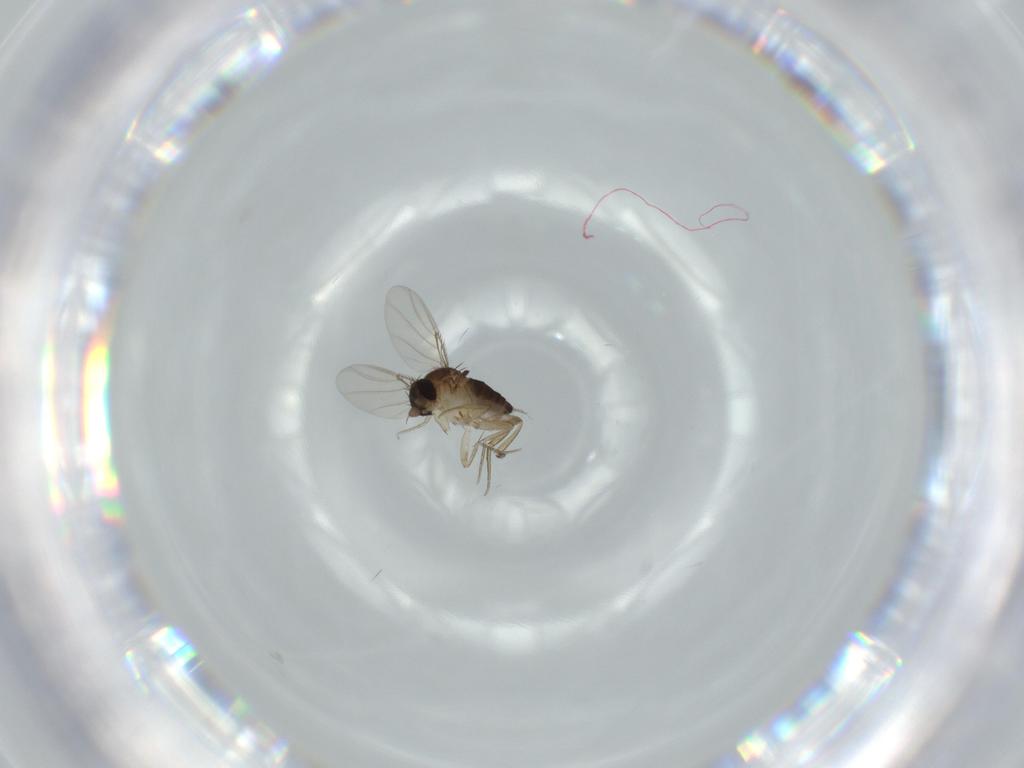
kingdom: Animalia
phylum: Arthropoda
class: Insecta
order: Diptera
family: Phoridae
